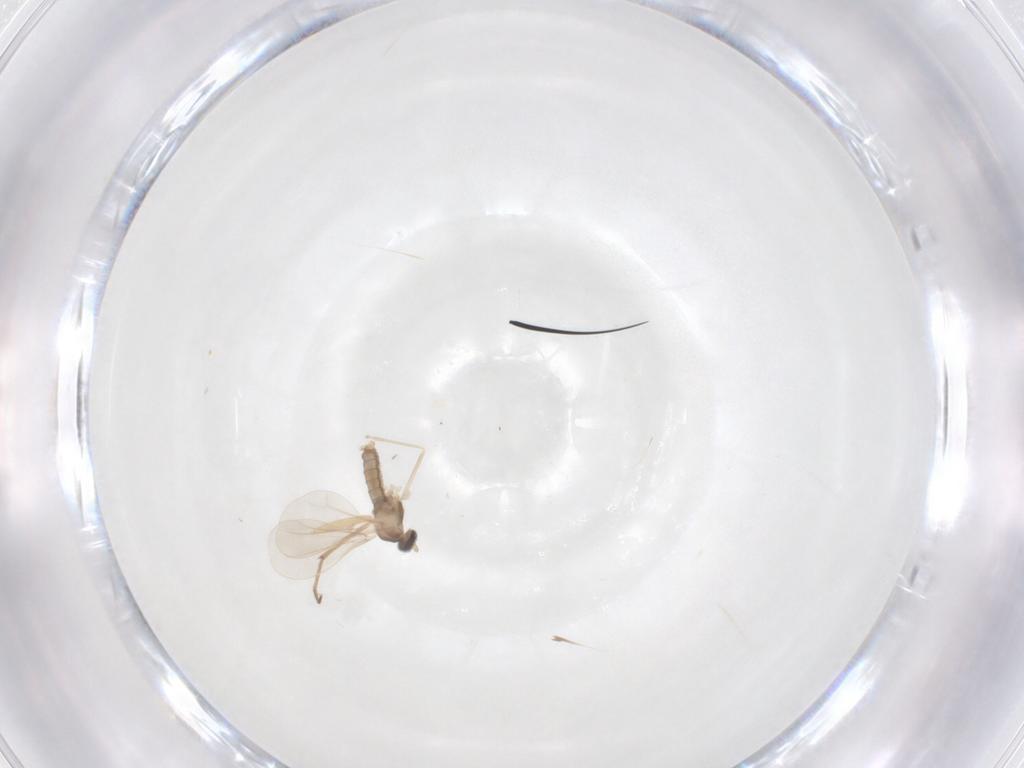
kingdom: Animalia
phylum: Arthropoda
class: Insecta
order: Diptera
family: Cecidomyiidae
